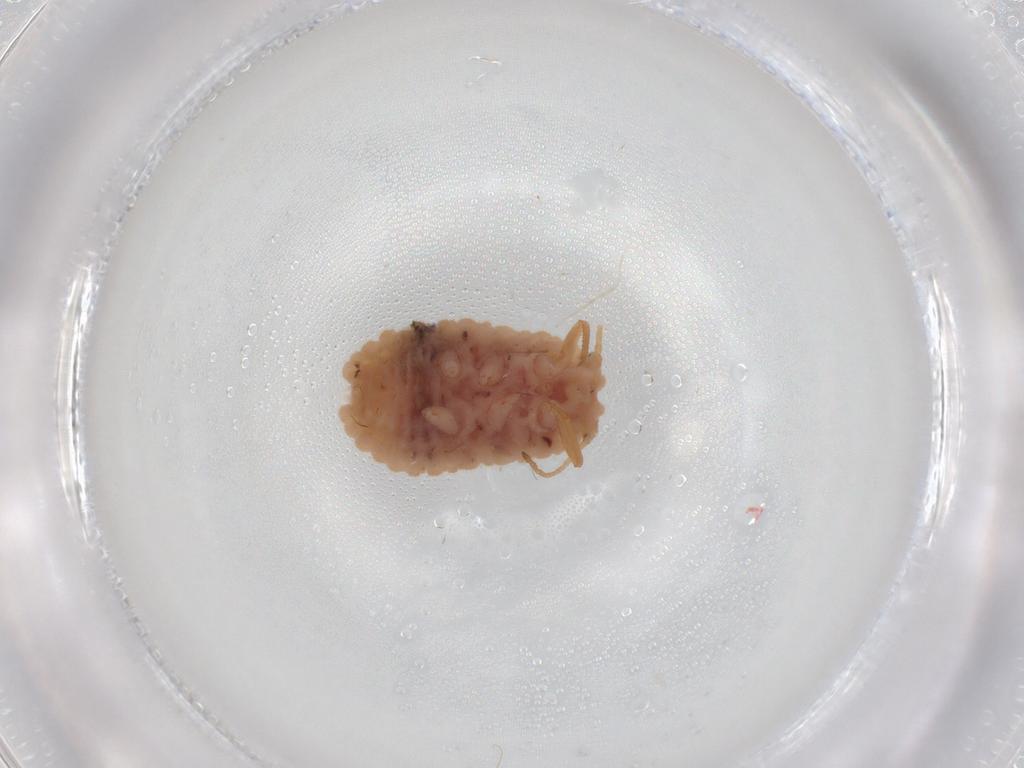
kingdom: Animalia
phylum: Arthropoda
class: Insecta
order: Hemiptera
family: Coccoidea_incertae_sedis
